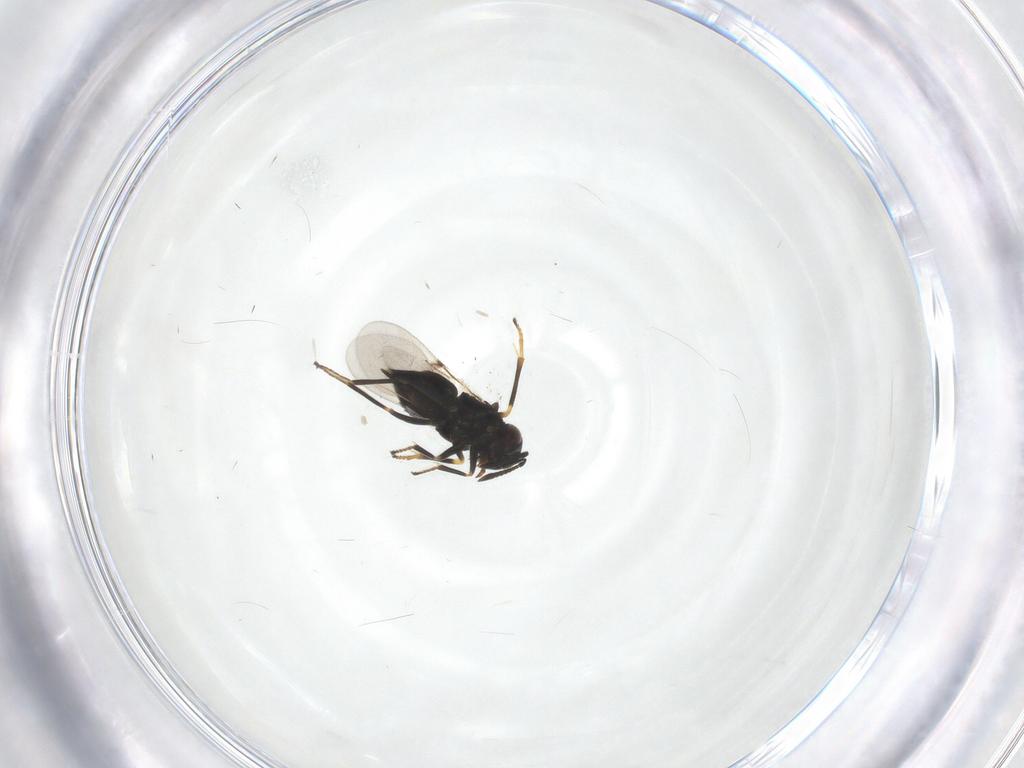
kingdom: Animalia
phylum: Arthropoda
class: Insecta
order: Hymenoptera
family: Encyrtidae
